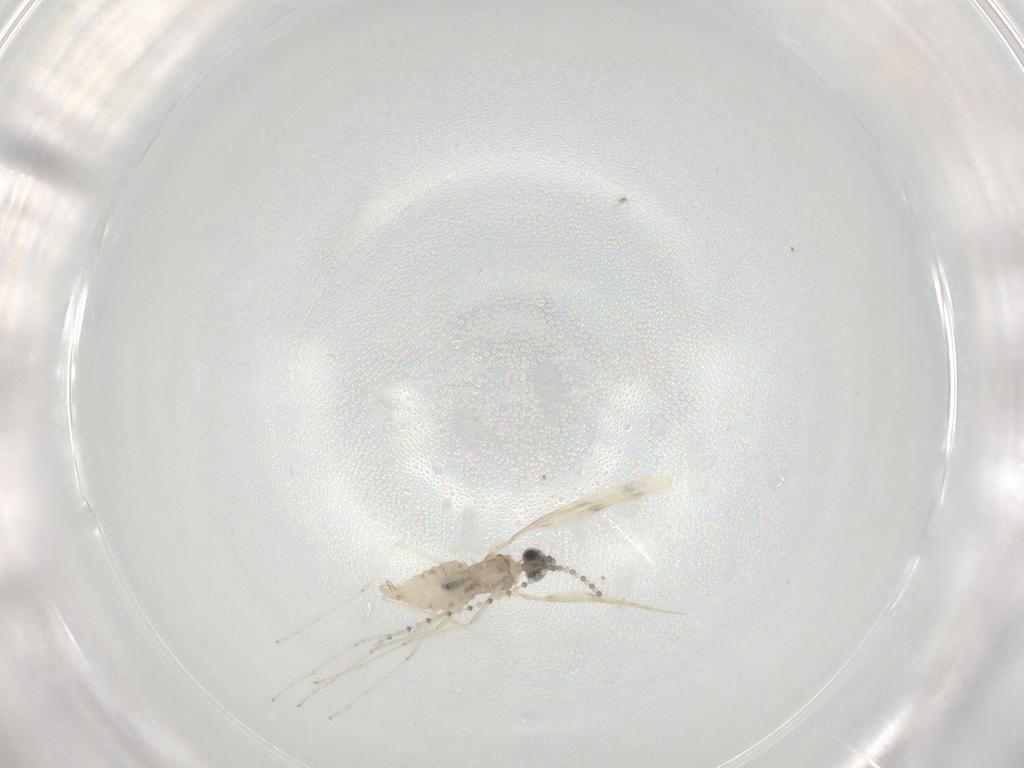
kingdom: Animalia
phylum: Arthropoda
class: Insecta
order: Diptera
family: Cecidomyiidae
